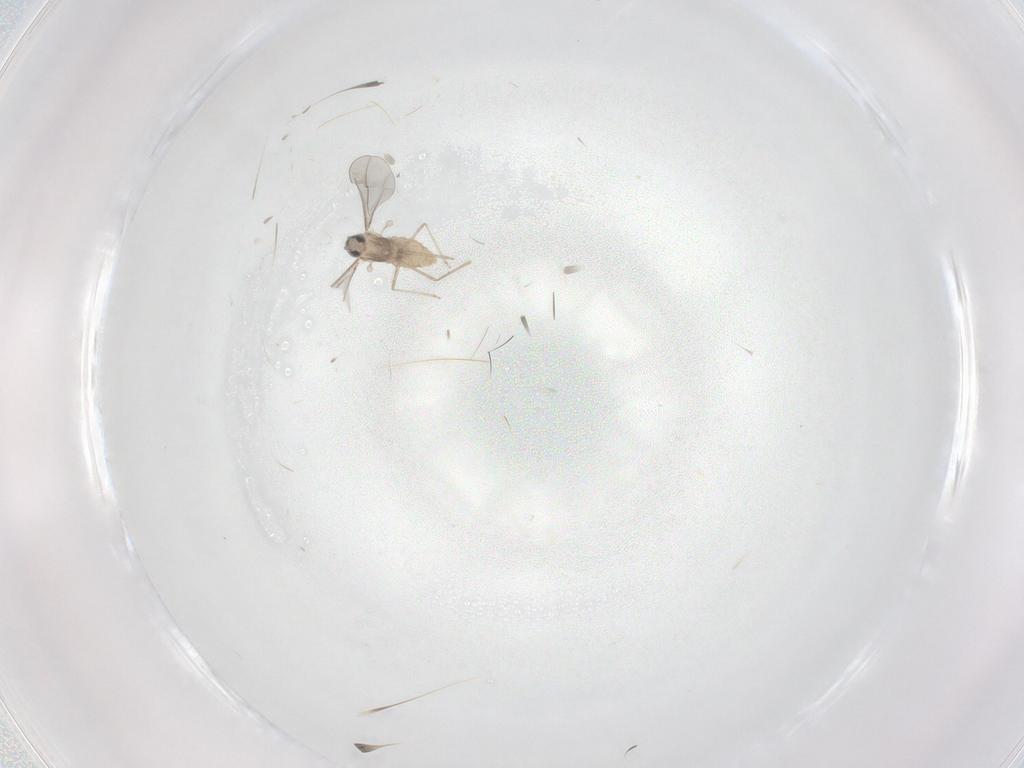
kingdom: Animalia
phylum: Arthropoda
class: Insecta
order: Diptera
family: Cecidomyiidae
